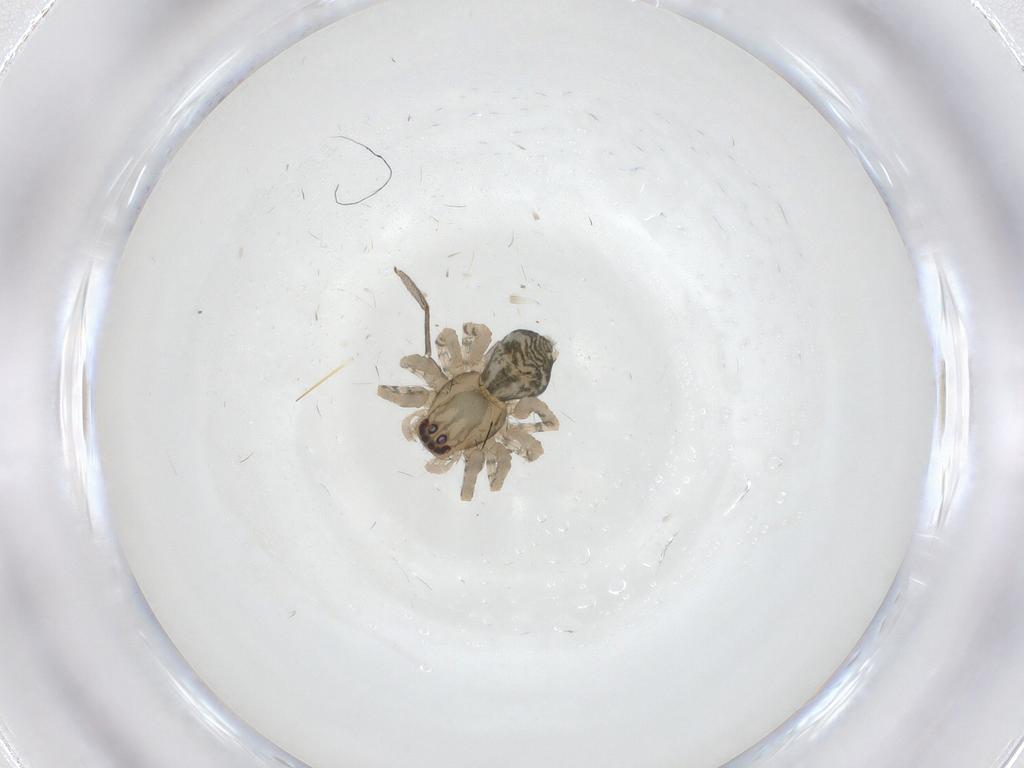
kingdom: Animalia
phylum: Arthropoda
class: Arachnida
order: Araneae
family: Anyphaenidae
